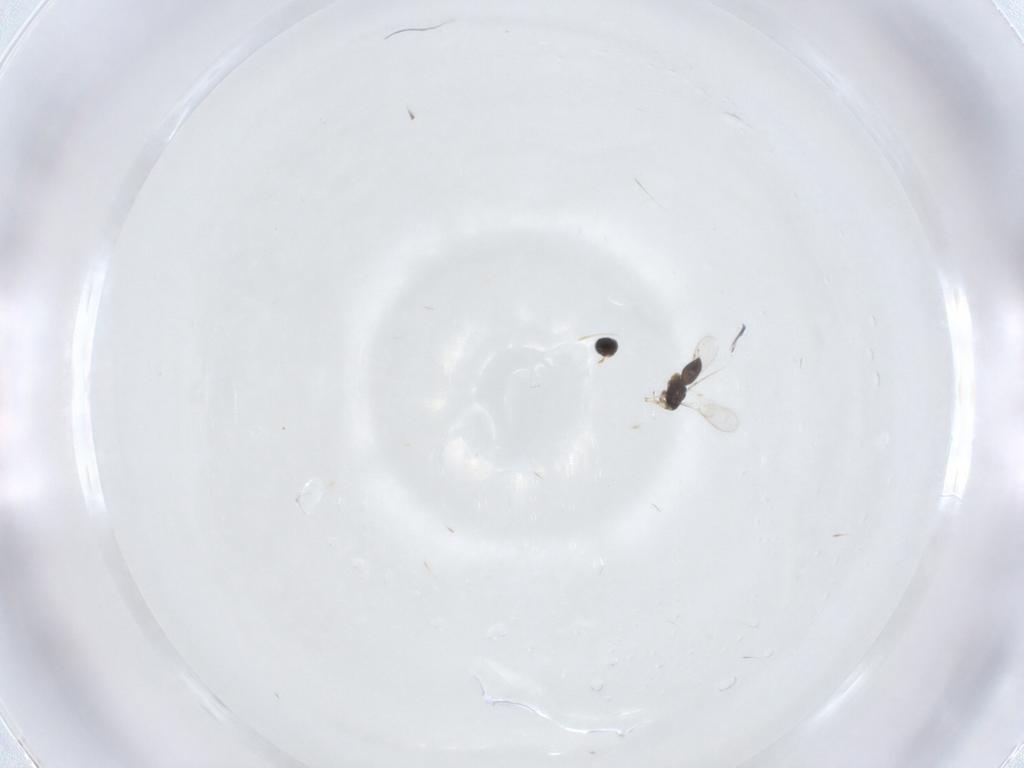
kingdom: Animalia
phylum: Arthropoda
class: Insecta
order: Hymenoptera
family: Scelionidae
